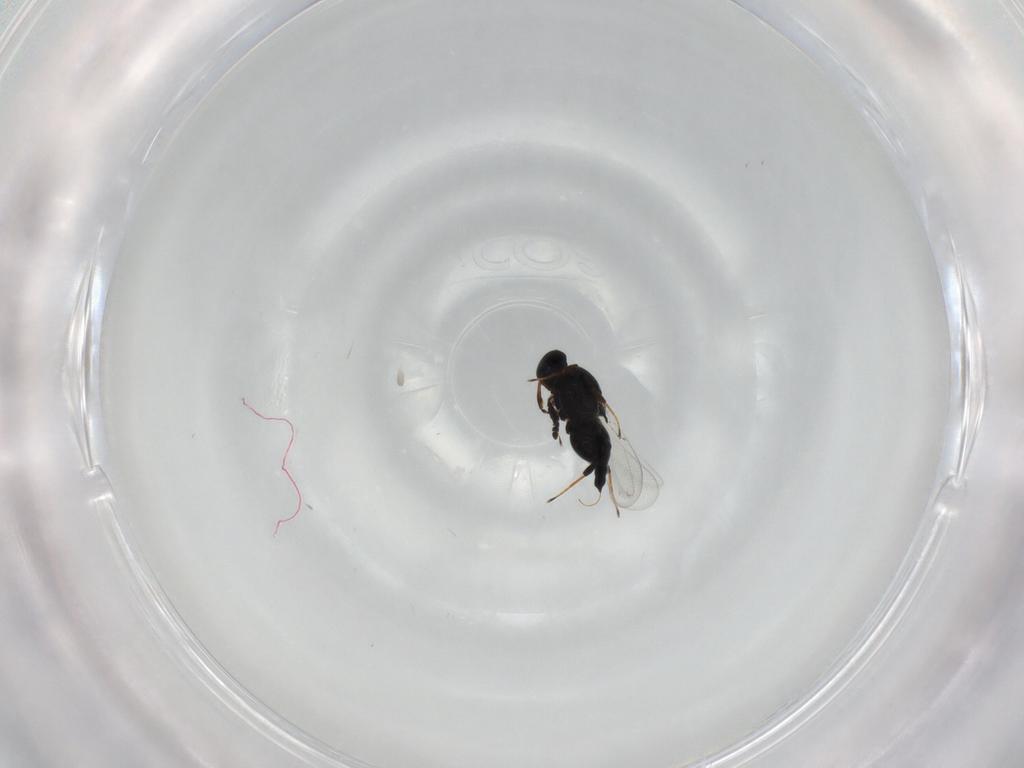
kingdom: Animalia
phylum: Arthropoda
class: Insecta
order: Hymenoptera
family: Platygastridae
